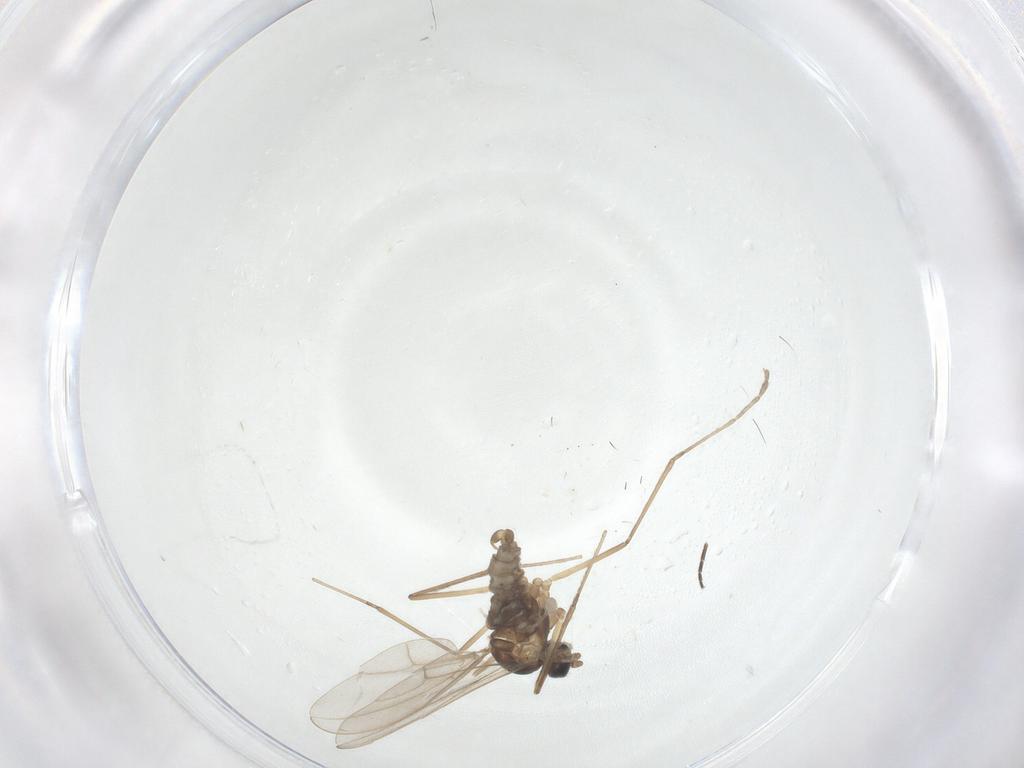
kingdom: Animalia
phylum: Arthropoda
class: Insecta
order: Diptera
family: Cecidomyiidae
